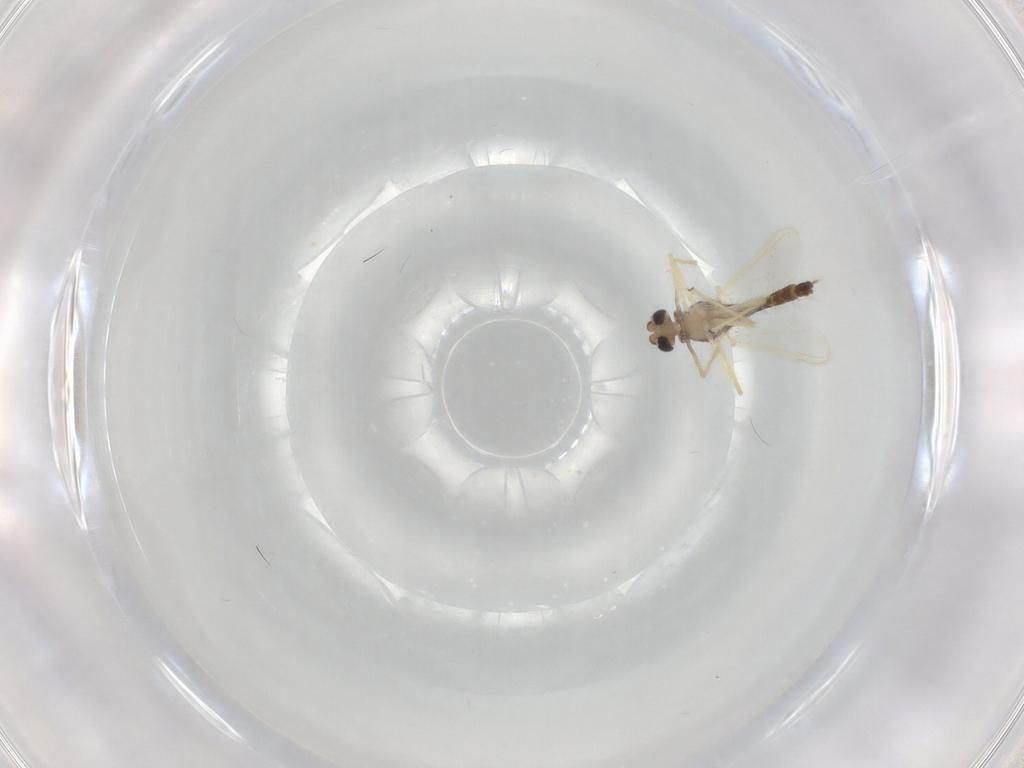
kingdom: Animalia
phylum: Arthropoda
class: Insecta
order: Diptera
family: Chironomidae
